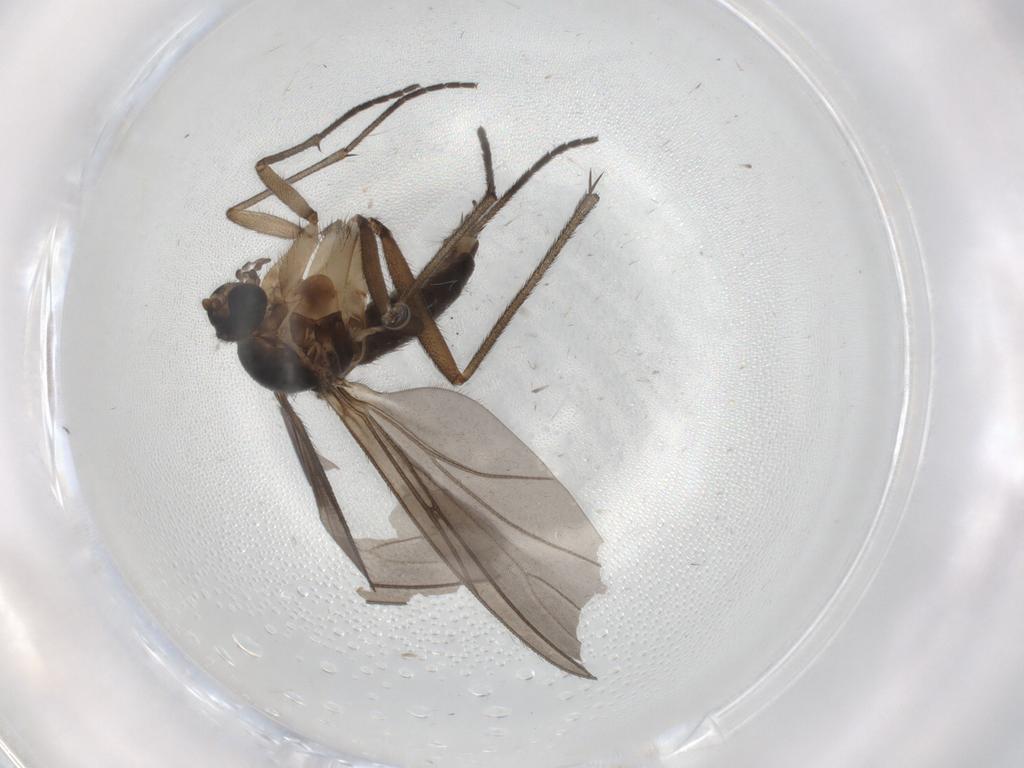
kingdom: Animalia
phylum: Arthropoda
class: Insecta
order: Diptera
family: Sciaridae
